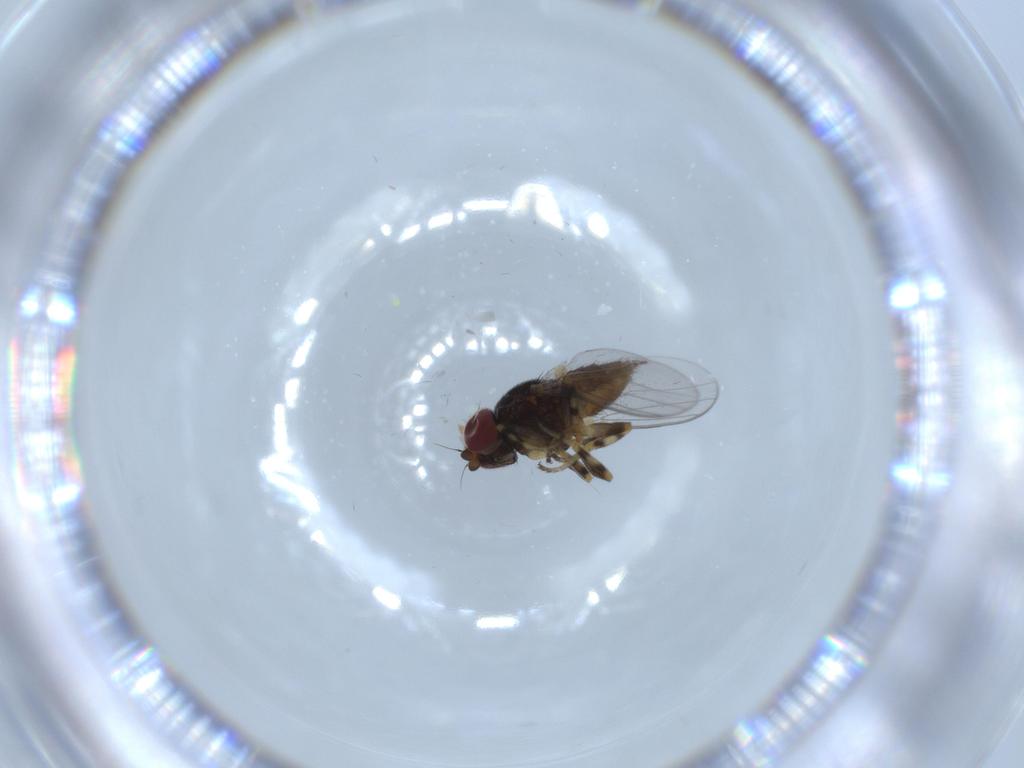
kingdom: Animalia
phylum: Arthropoda
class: Insecta
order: Diptera
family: Chloropidae
